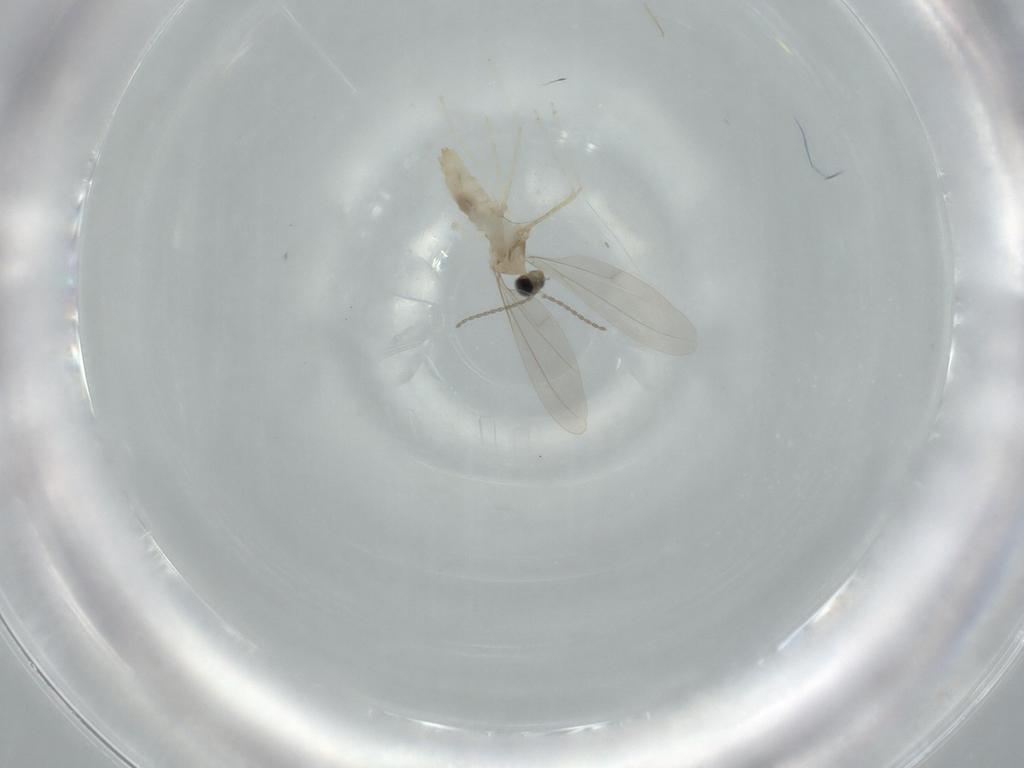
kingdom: Animalia
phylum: Arthropoda
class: Insecta
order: Diptera
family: Cecidomyiidae
